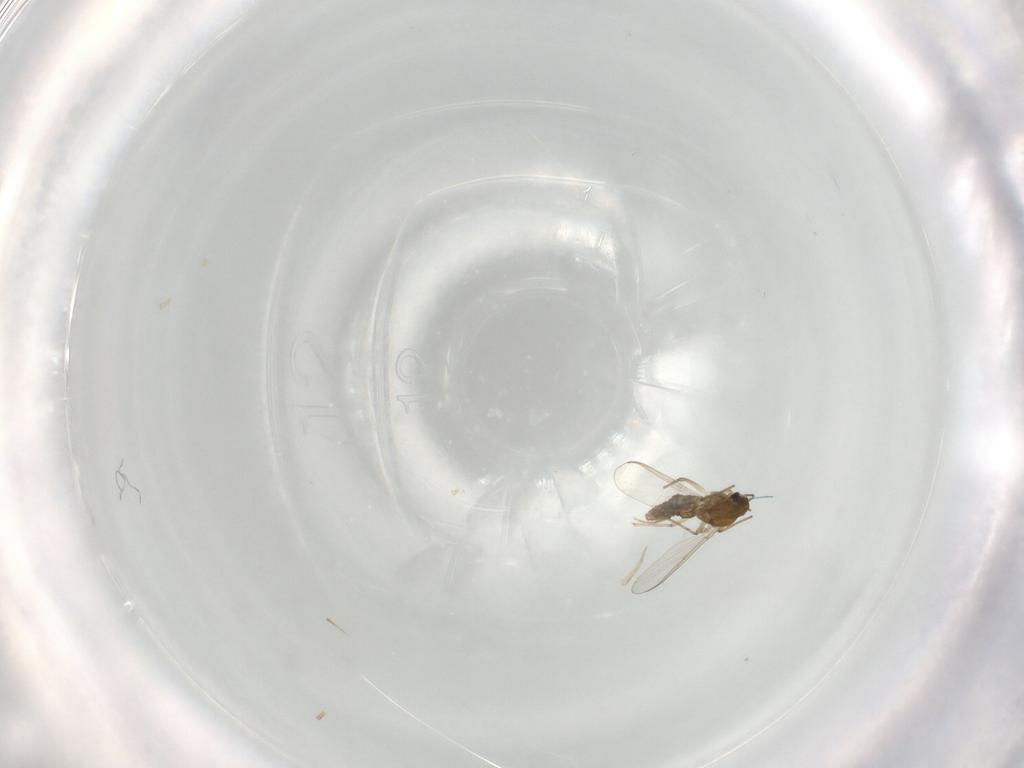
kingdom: Animalia
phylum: Arthropoda
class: Insecta
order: Diptera
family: Chironomidae
